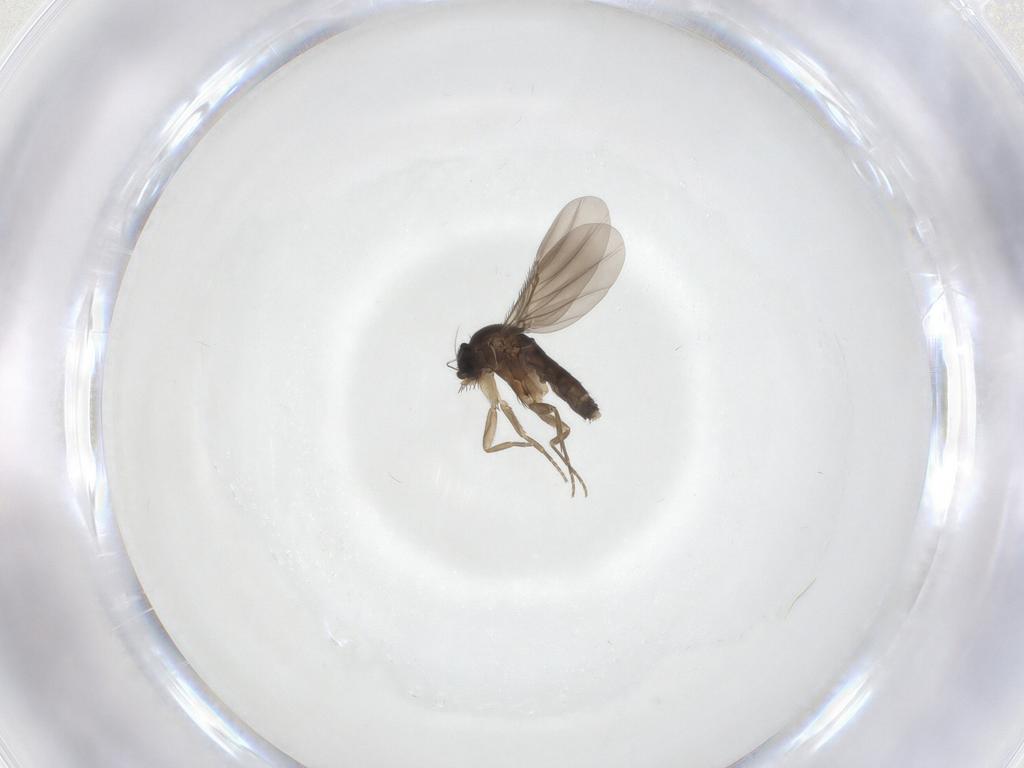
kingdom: Animalia
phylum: Arthropoda
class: Insecta
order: Diptera
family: Phoridae
